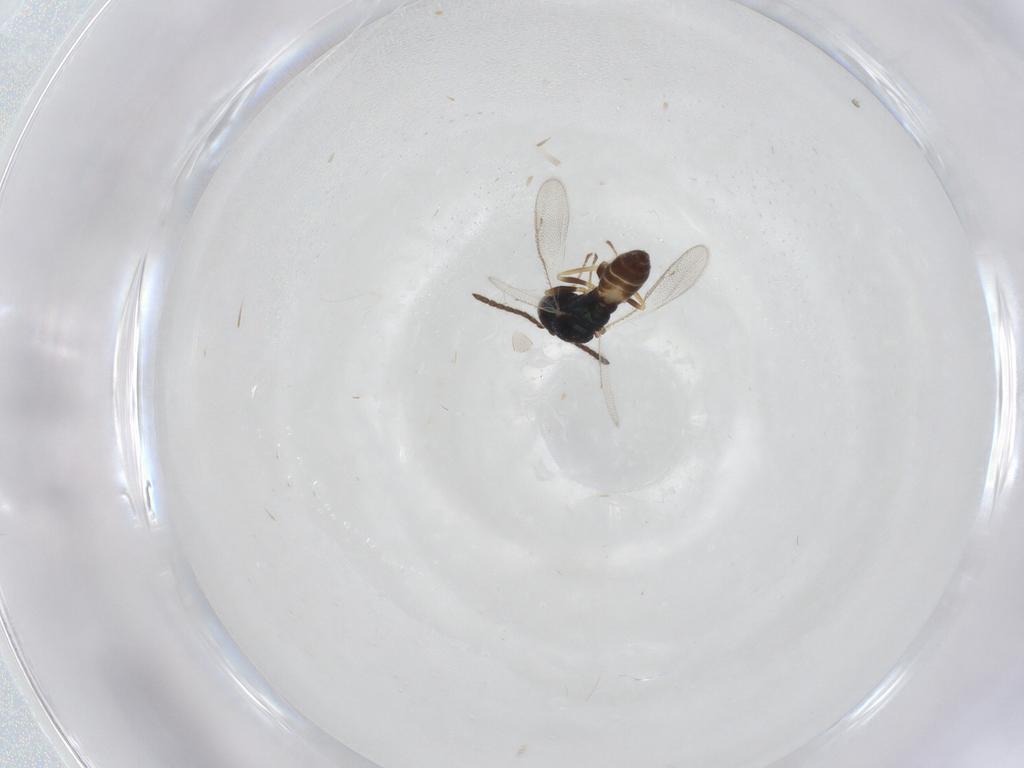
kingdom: Animalia
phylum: Arthropoda
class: Insecta
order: Hymenoptera
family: Pteromalidae
